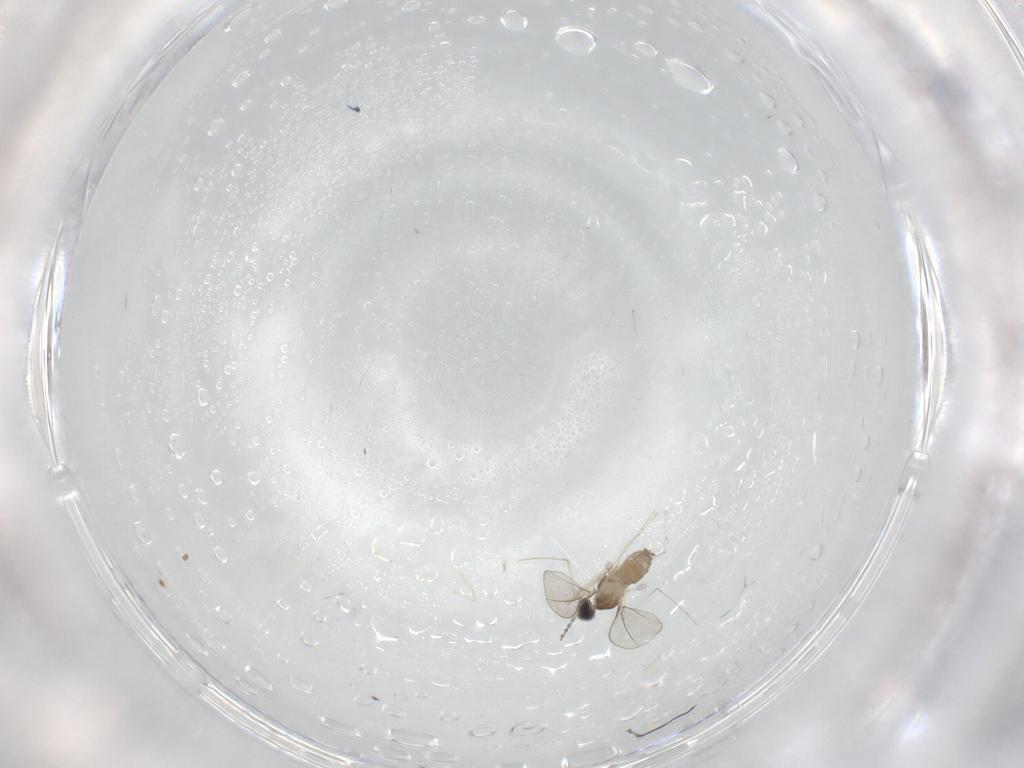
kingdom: Animalia
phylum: Arthropoda
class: Insecta
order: Diptera
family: Psychodidae
